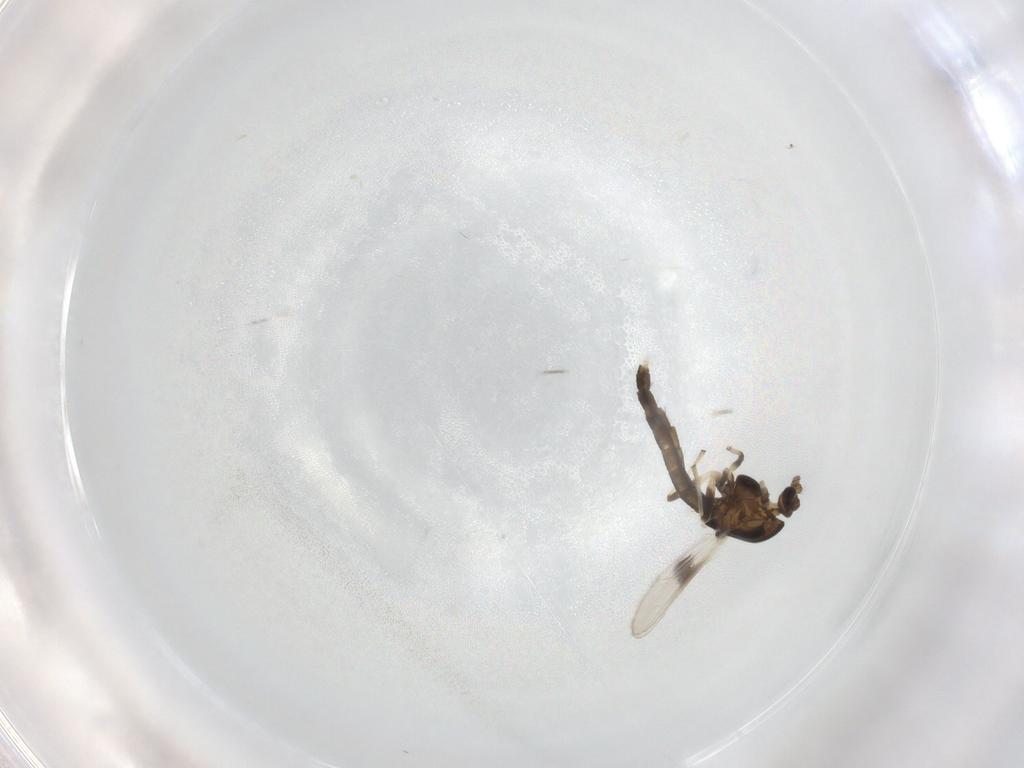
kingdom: Animalia
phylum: Arthropoda
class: Insecta
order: Diptera
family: Chironomidae
